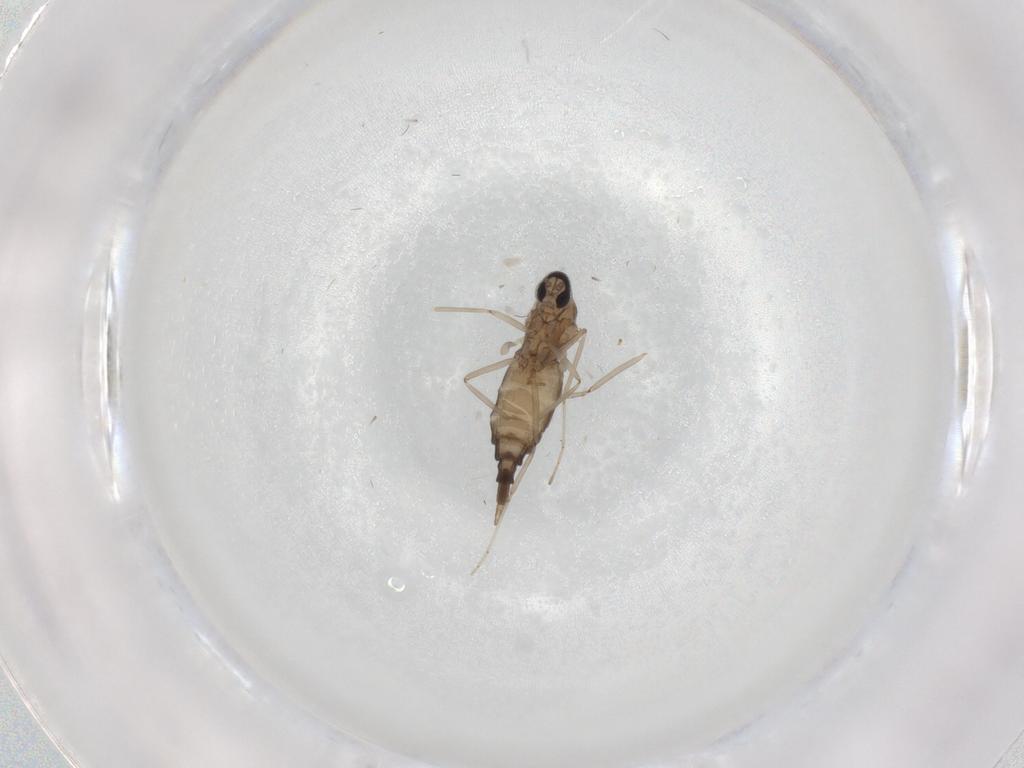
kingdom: Animalia
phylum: Arthropoda
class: Insecta
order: Diptera
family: Cecidomyiidae
